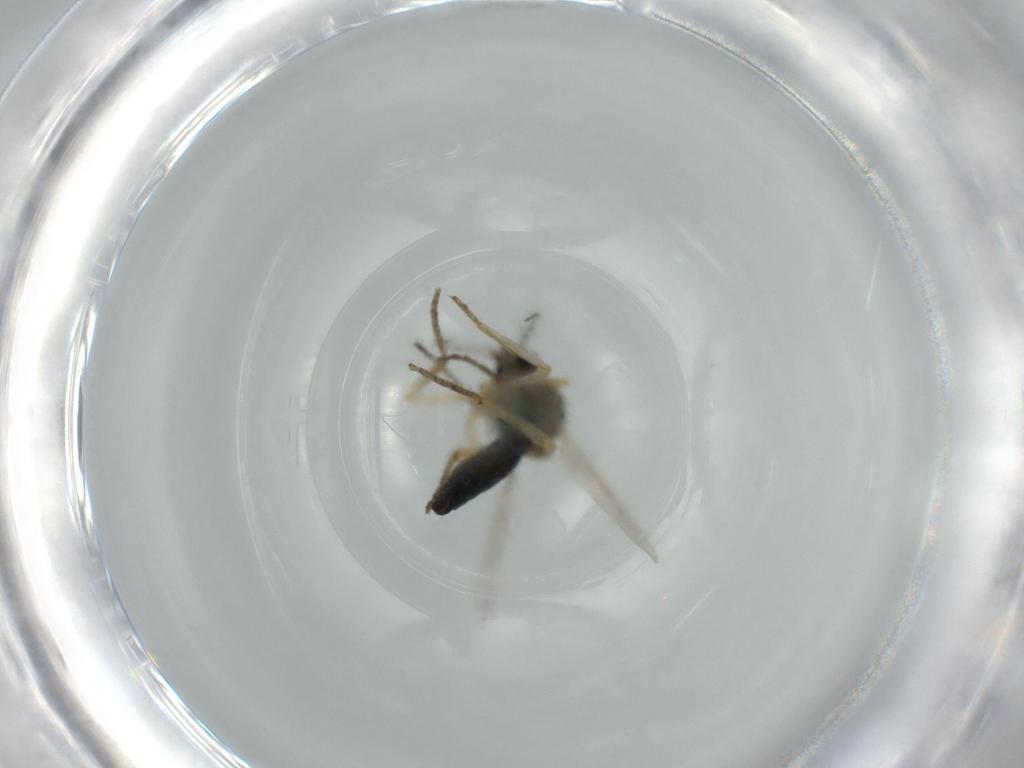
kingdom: Animalia
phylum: Arthropoda
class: Insecta
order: Diptera
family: Ceratopogonidae
